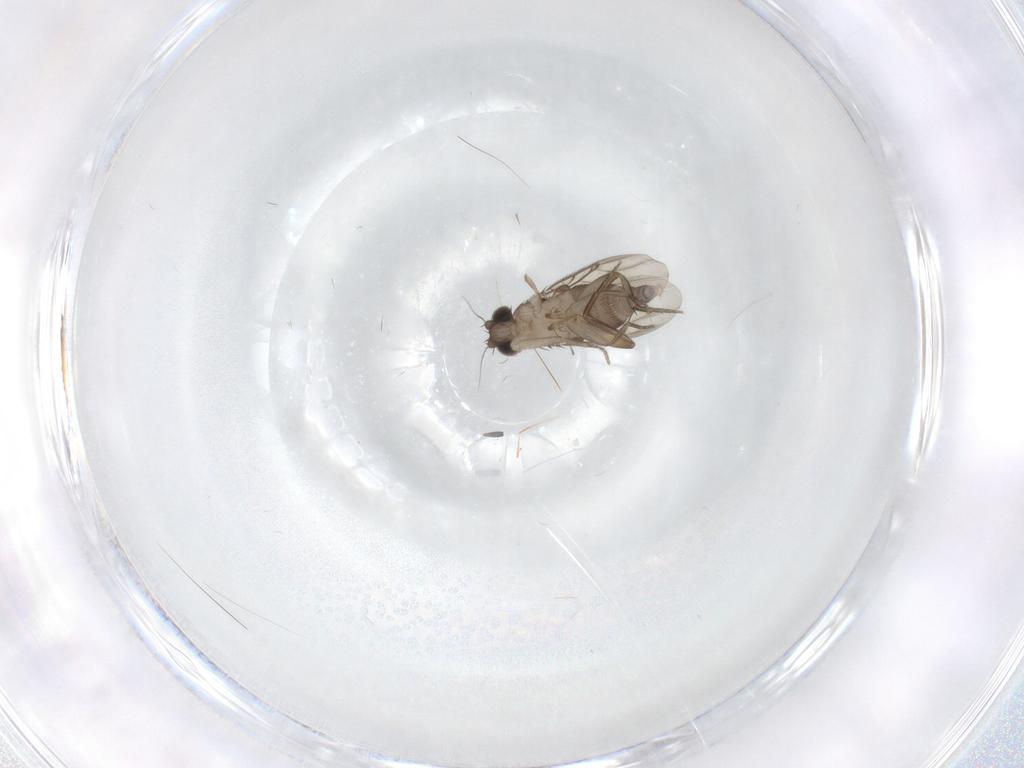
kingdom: Animalia
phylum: Arthropoda
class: Insecta
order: Diptera
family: Phoridae
